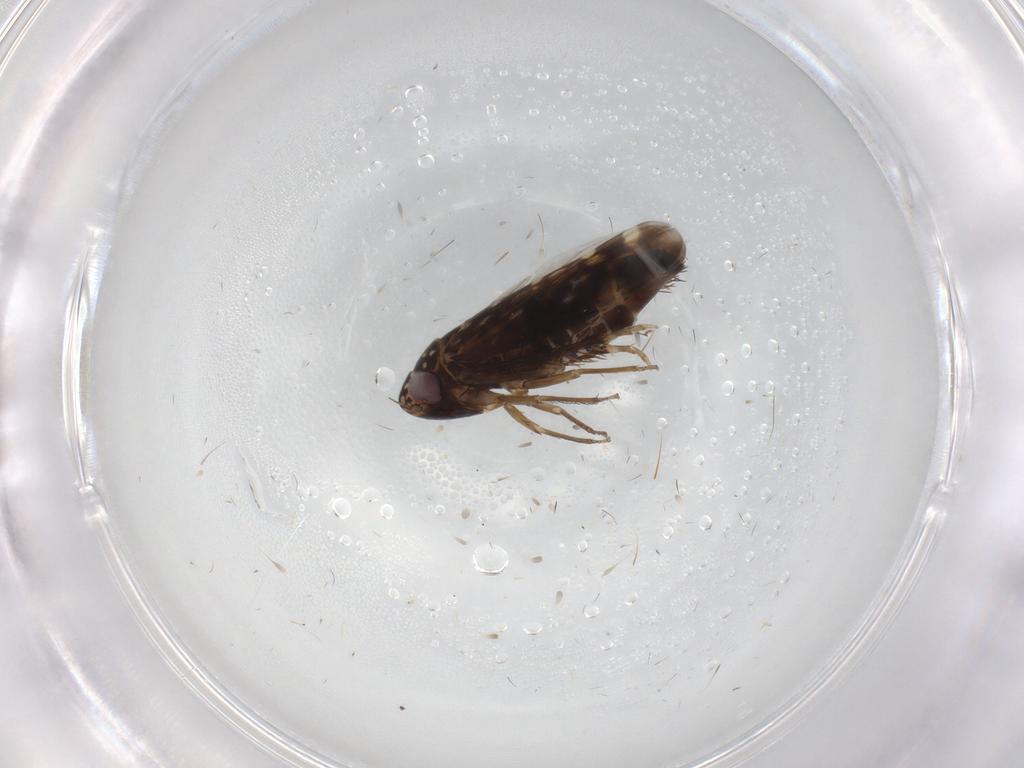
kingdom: Animalia
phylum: Arthropoda
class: Insecta
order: Hemiptera
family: Cicadellidae
